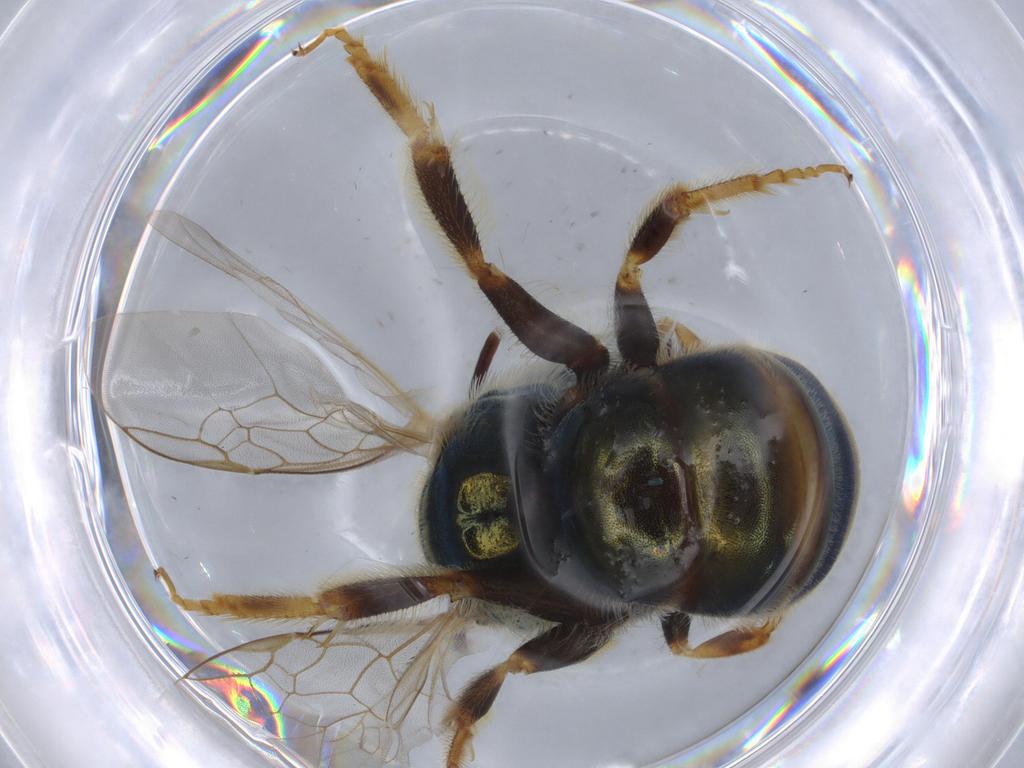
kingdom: Animalia
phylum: Arthropoda
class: Insecta
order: Hymenoptera
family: Halictidae
